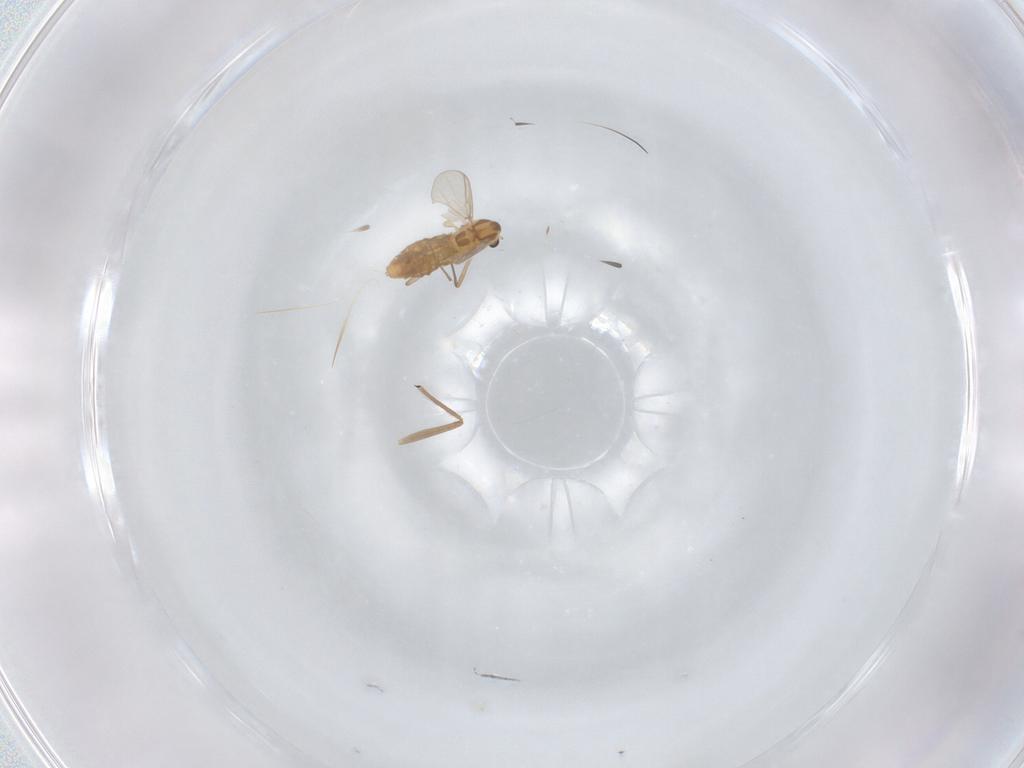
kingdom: Animalia
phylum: Arthropoda
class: Insecta
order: Diptera
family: Chironomidae
